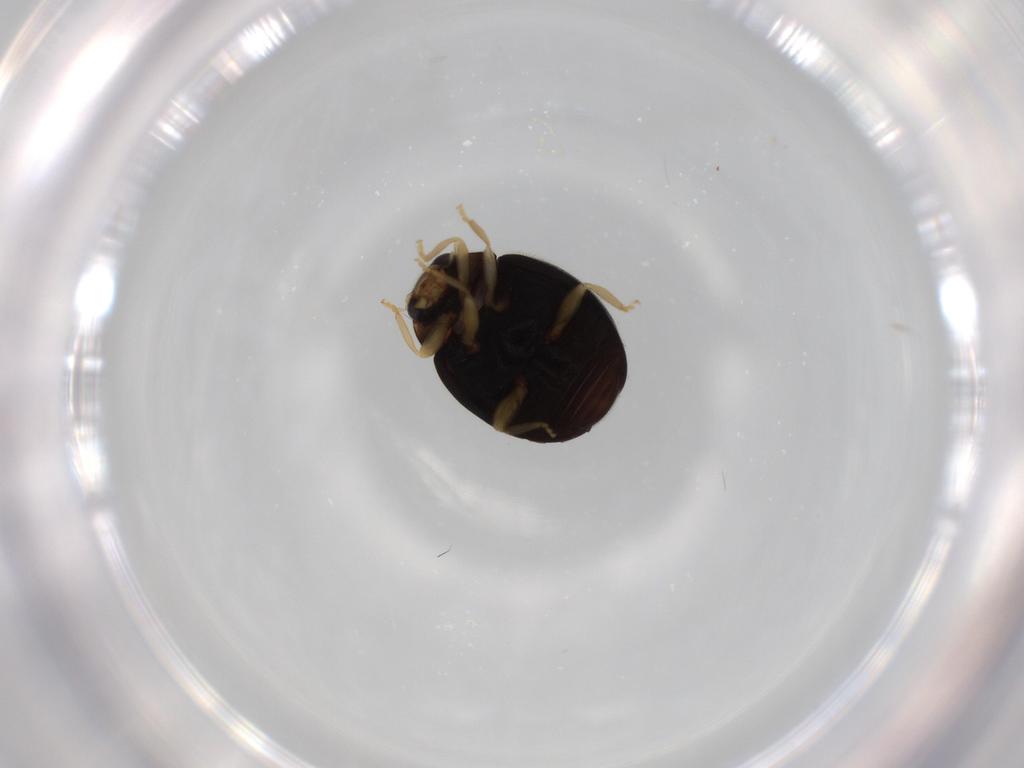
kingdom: Animalia
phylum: Arthropoda
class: Insecta
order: Coleoptera
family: Coccinellidae
